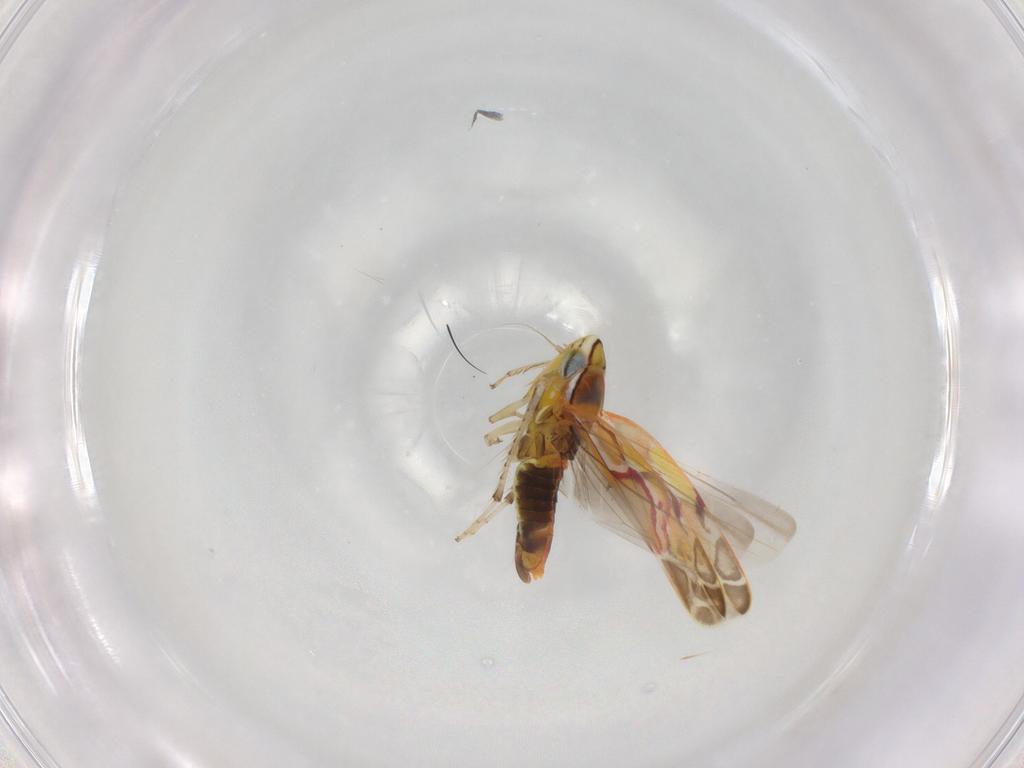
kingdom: Animalia
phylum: Arthropoda
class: Insecta
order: Hemiptera
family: Cicadellidae
